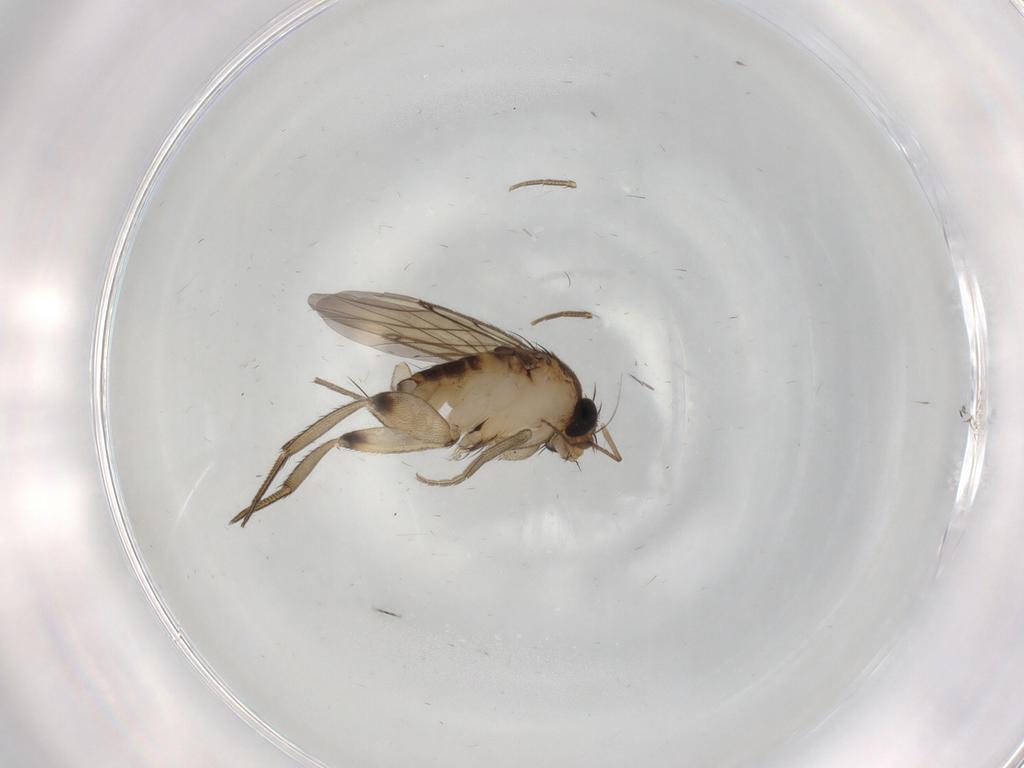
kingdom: Animalia
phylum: Arthropoda
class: Insecta
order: Diptera
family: Phoridae
